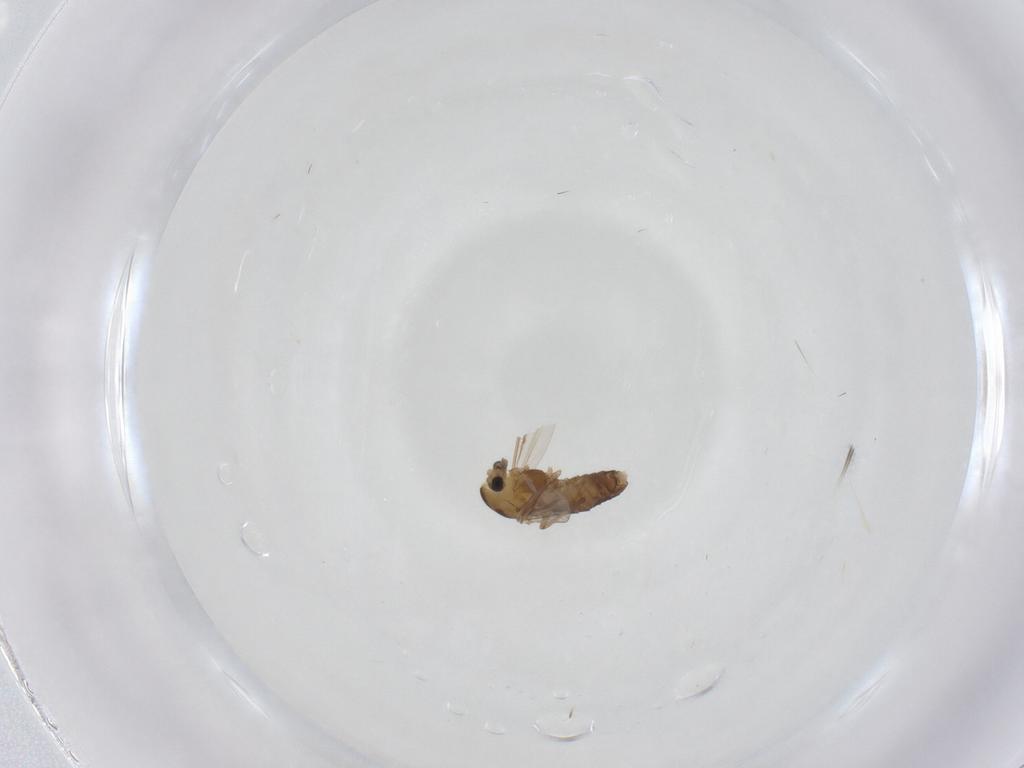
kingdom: Animalia
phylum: Arthropoda
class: Insecta
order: Diptera
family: Chironomidae
